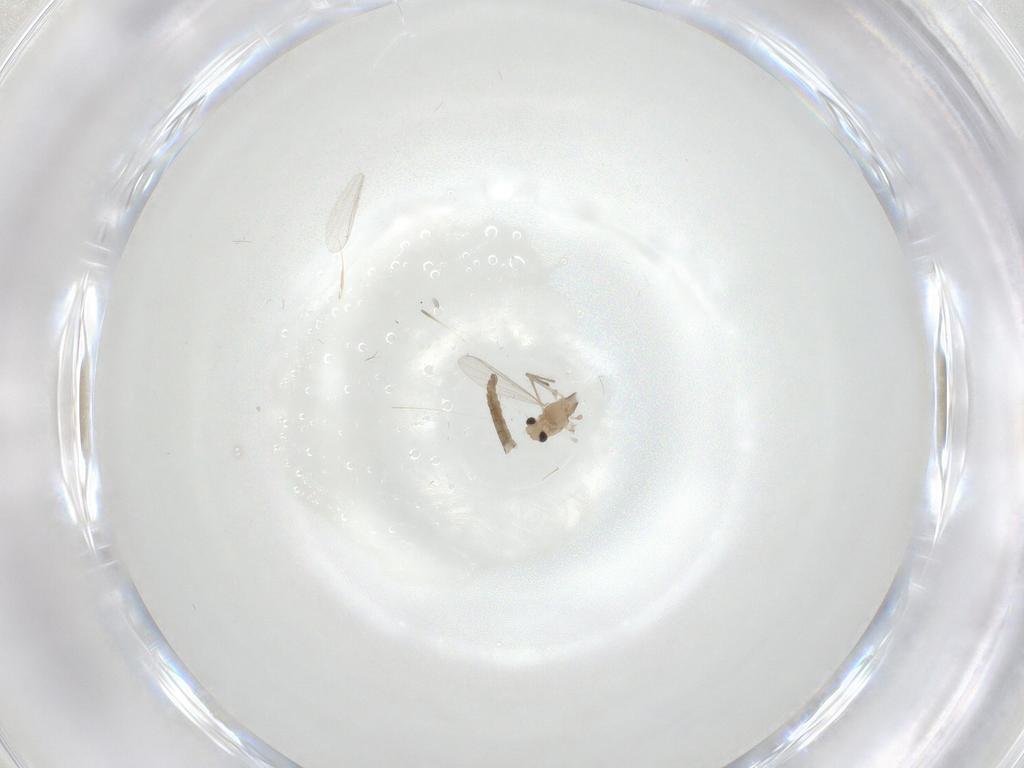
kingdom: Animalia
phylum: Arthropoda
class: Insecta
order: Diptera
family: Chironomidae
